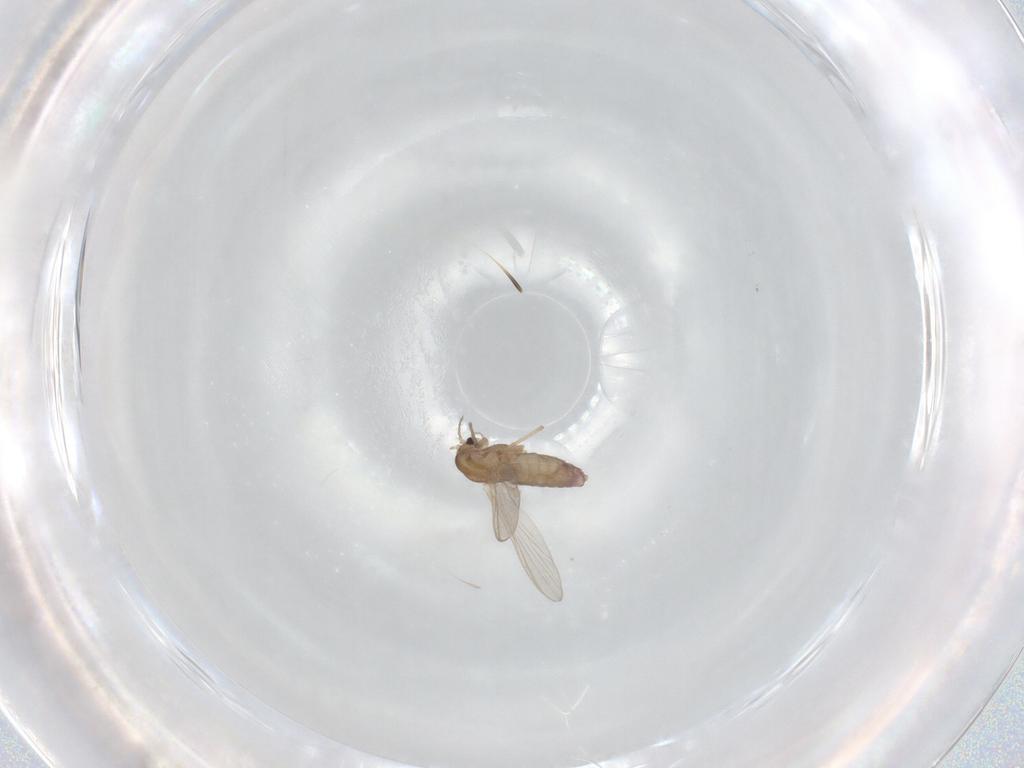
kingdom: Animalia
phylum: Arthropoda
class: Insecta
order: Diptera
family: Chironomidae
